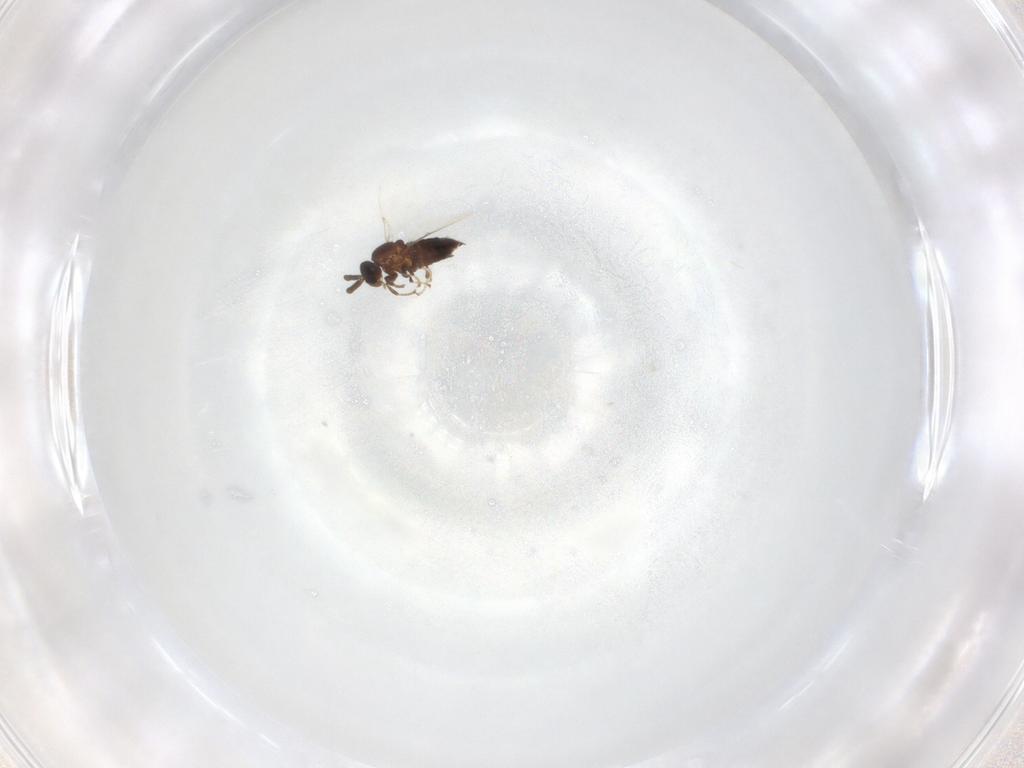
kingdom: Animalia
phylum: Arthropoda
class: Insecta
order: Diptera
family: Scatopsidae
